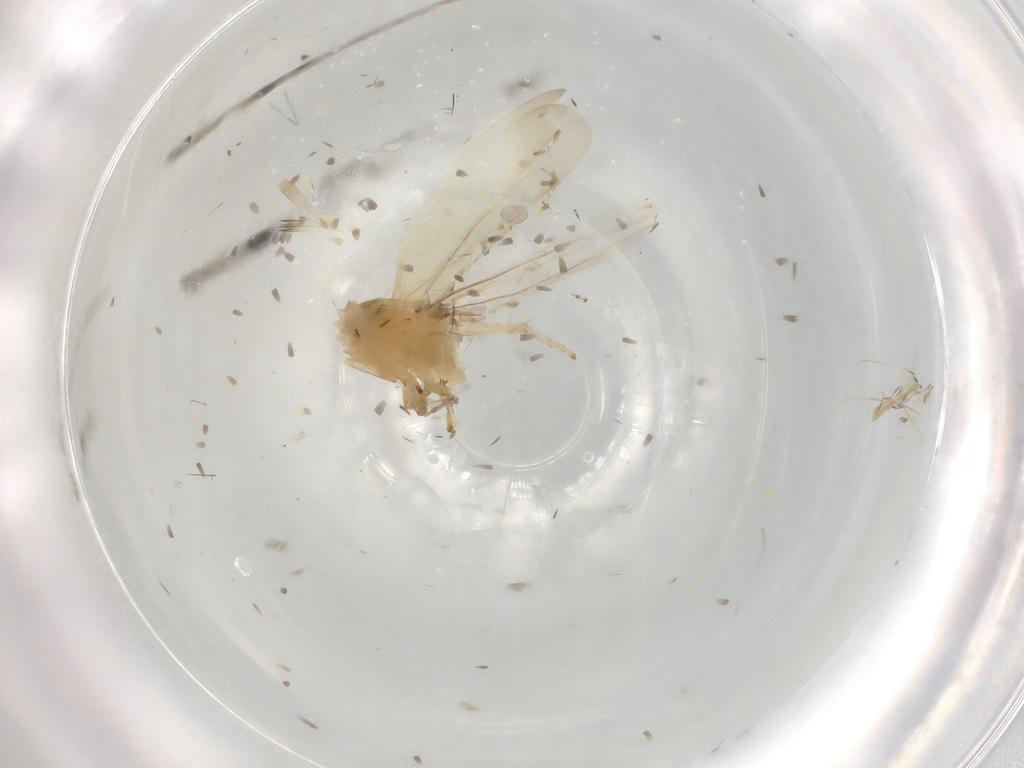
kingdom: Animalia
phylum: Arthropoda
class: Insecta
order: Hemiptera
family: Cicadellidae
